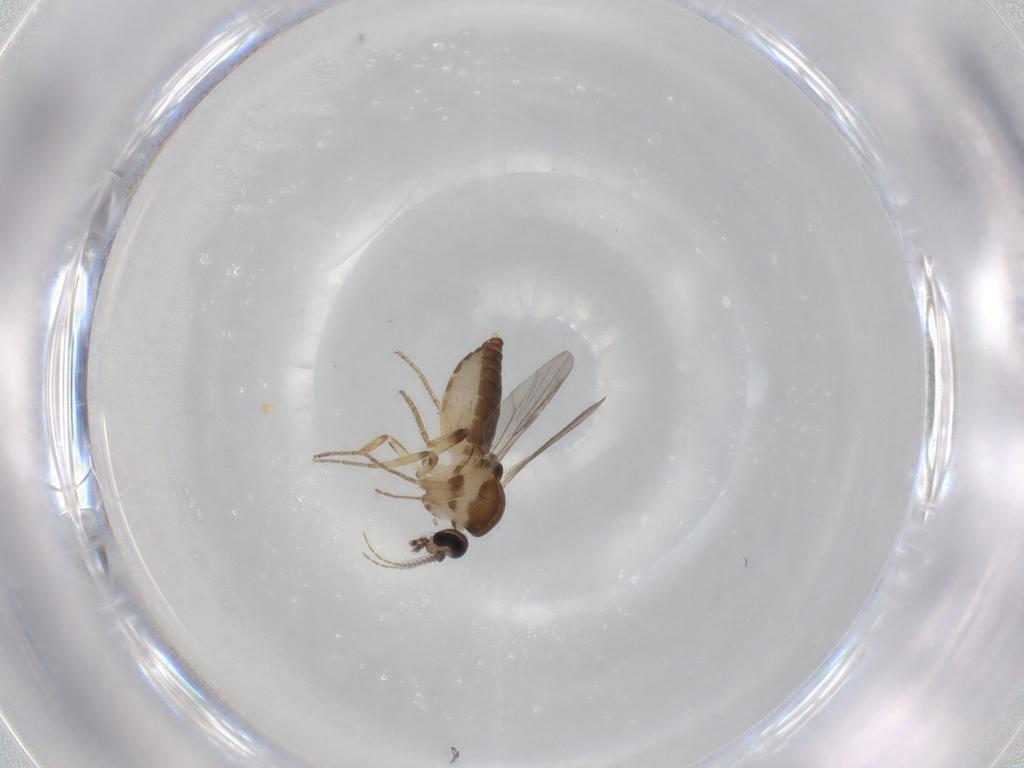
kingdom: Animalia
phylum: Arthropoda
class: Insecta
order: Diptera
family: Ceratopogonidae
